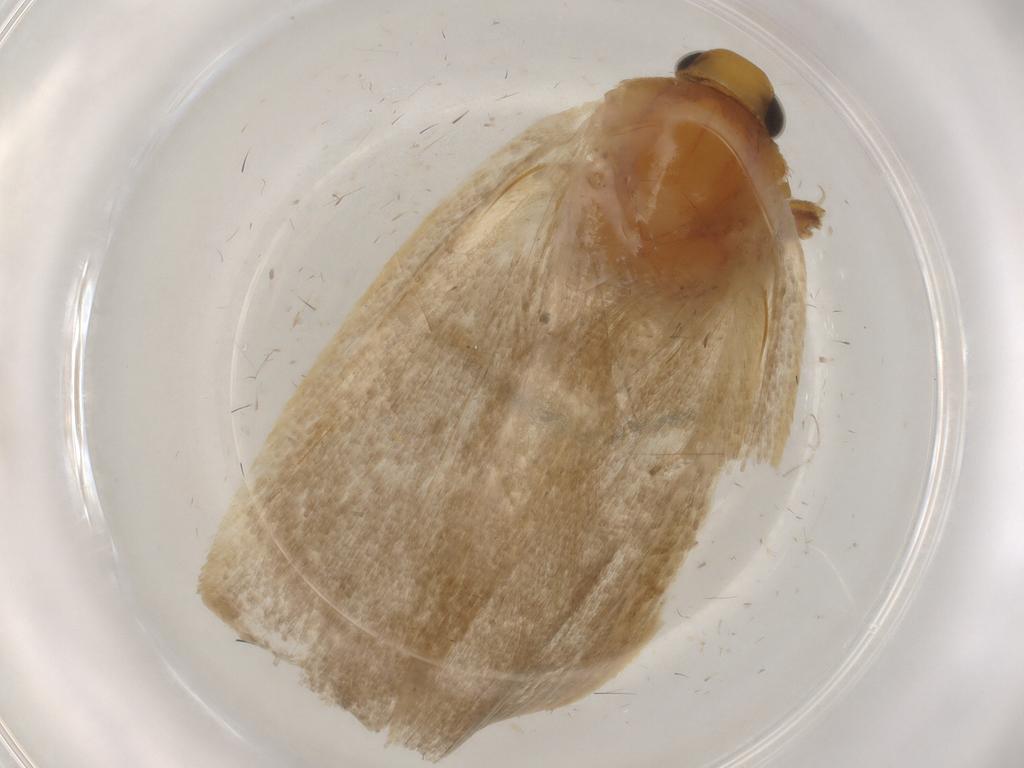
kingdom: Animalia
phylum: Arthropoda
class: Insecta
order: Lepidoptera
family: Autostichidae
